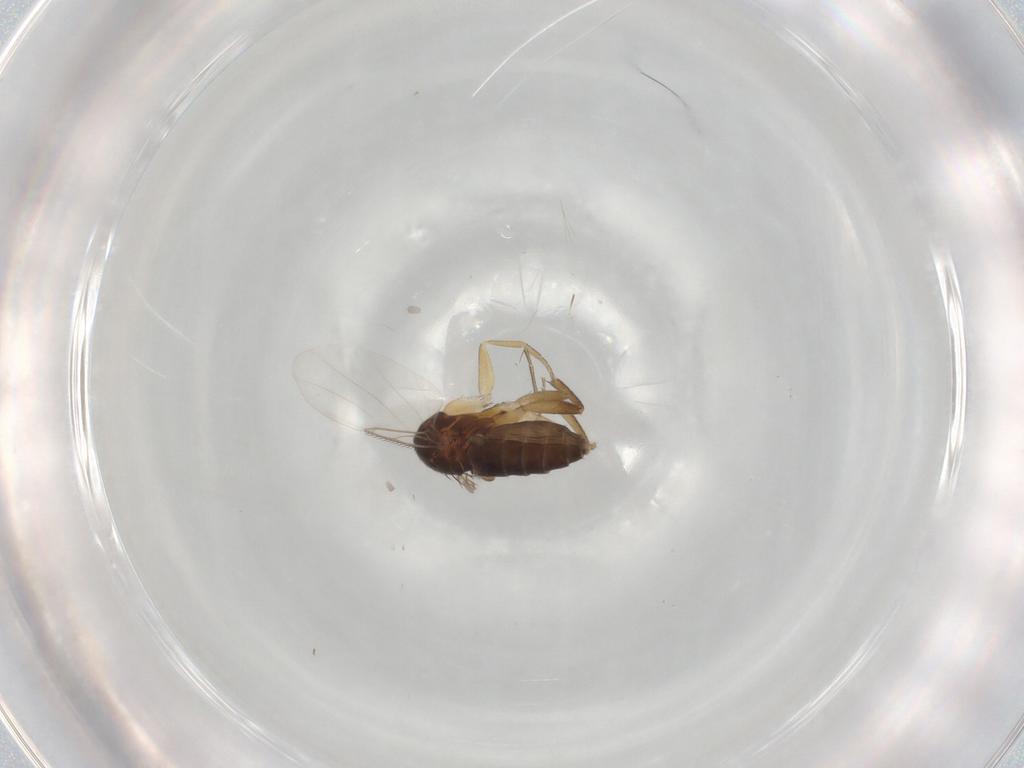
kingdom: Animalia
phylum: Arthropoda
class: Insecta
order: Diptera
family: Phoridae
